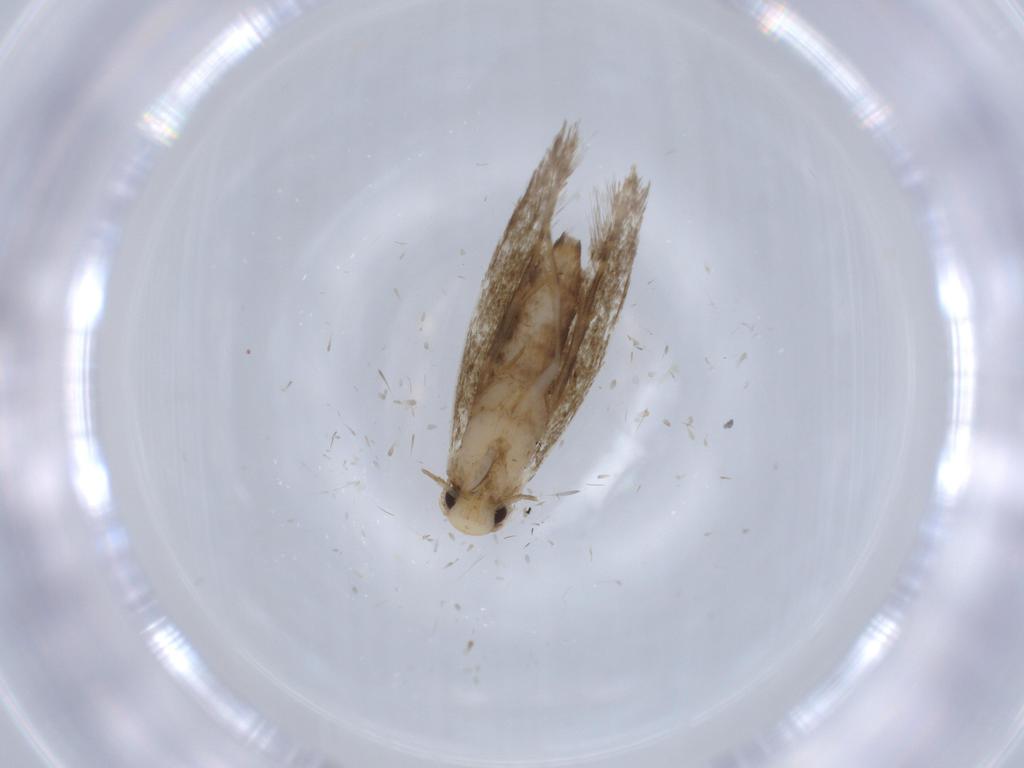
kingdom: Animalia
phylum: Arthropoda
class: Insecta
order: Lepidoptera
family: Tineidae
